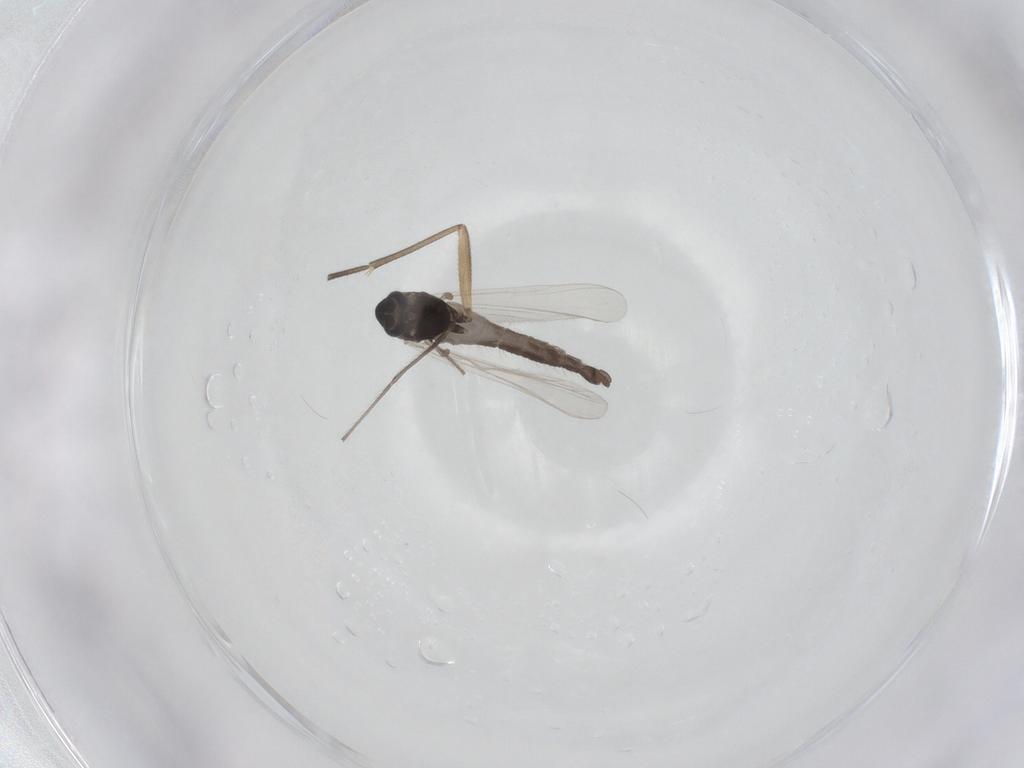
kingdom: Animalia
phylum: Arthropoda
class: Insecta
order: Diptera
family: Chironomidae
